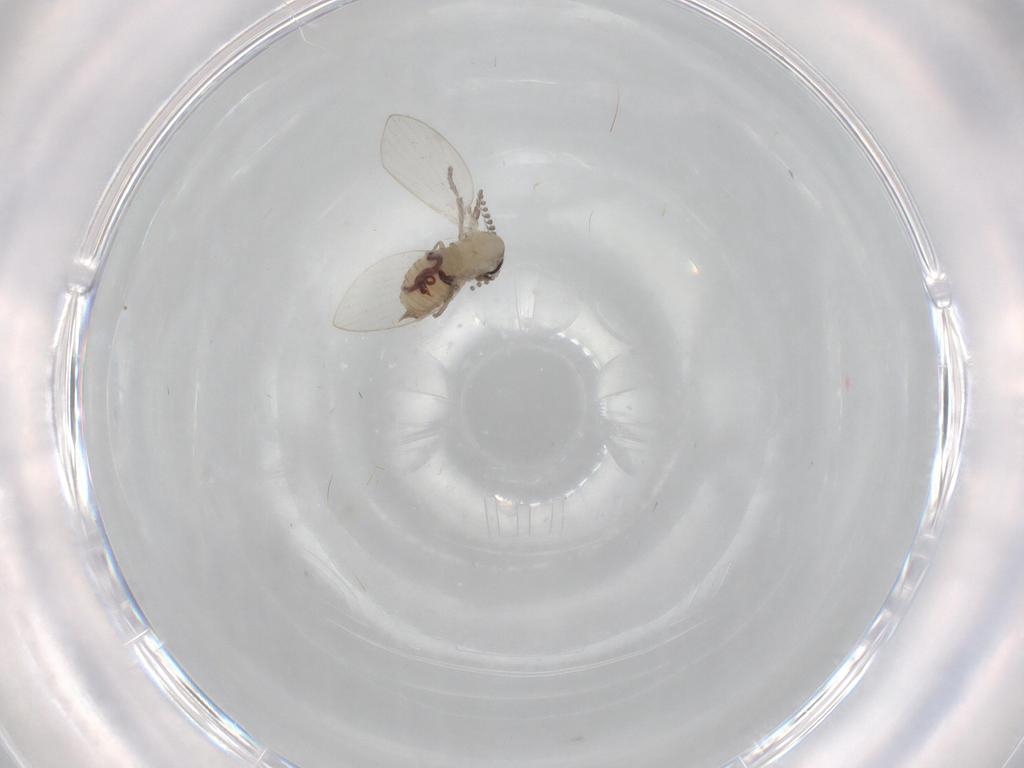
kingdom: Animalia
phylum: Arthropoda
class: Insecta
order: Diptera
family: Psychodidae
